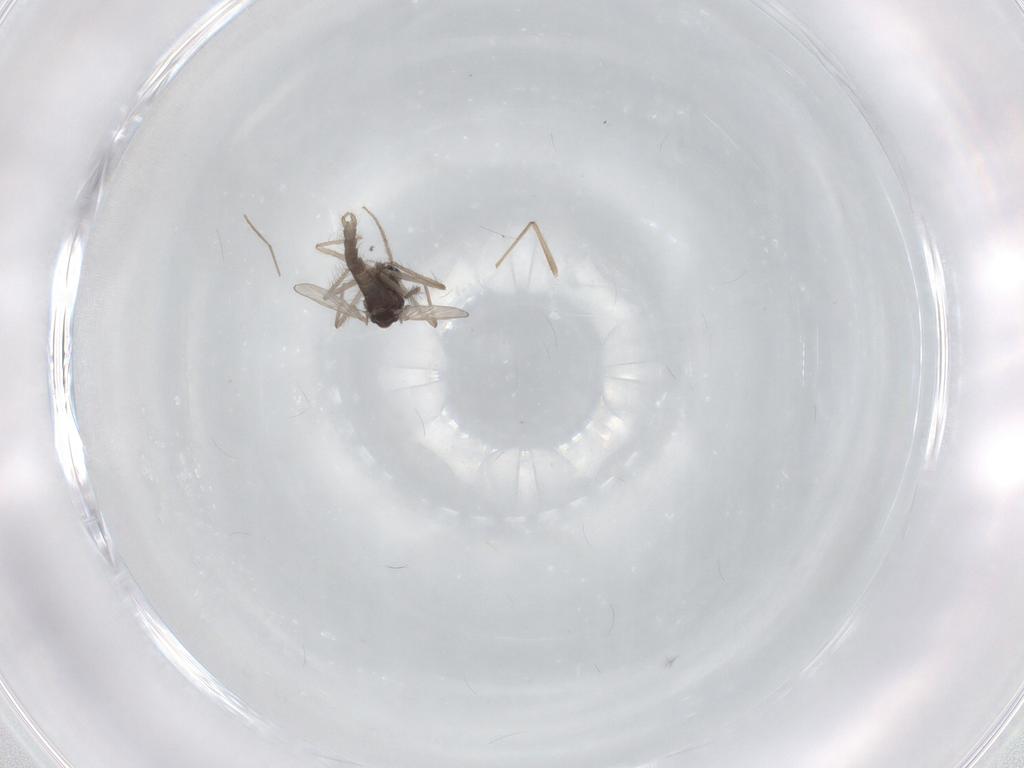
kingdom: Animalia
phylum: Arthropoda
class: Insecta
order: Diptera
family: Chironomidae
